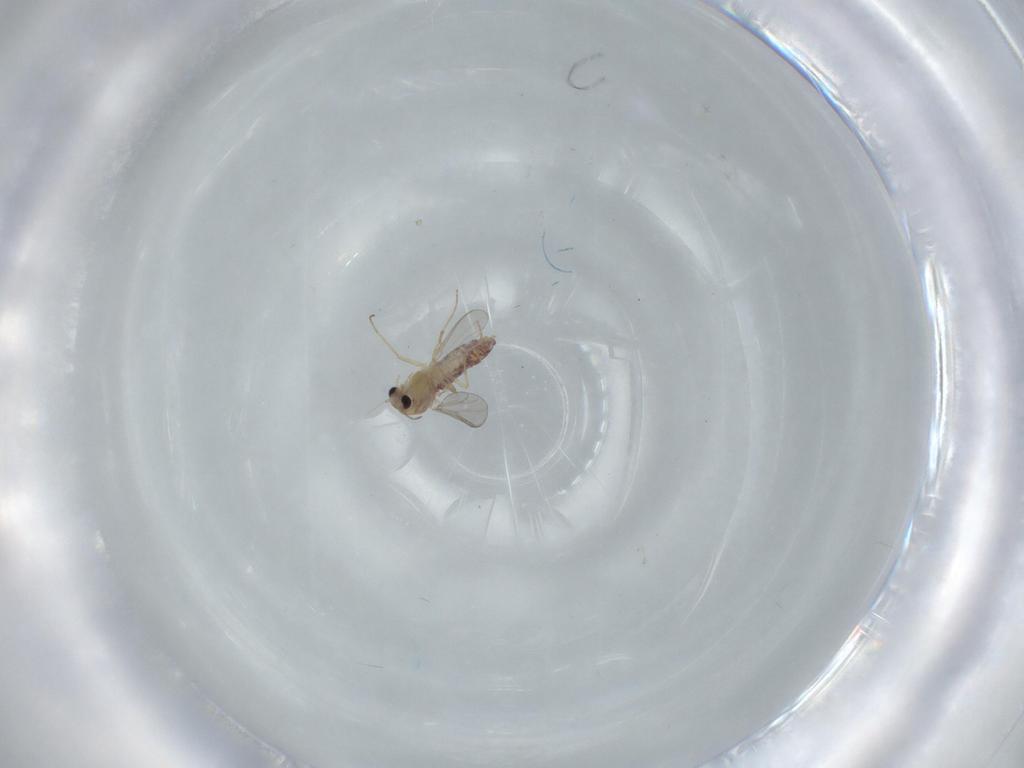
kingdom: Animalia
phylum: Arthropoda
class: Insecta
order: Diptera
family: Chironomidae
